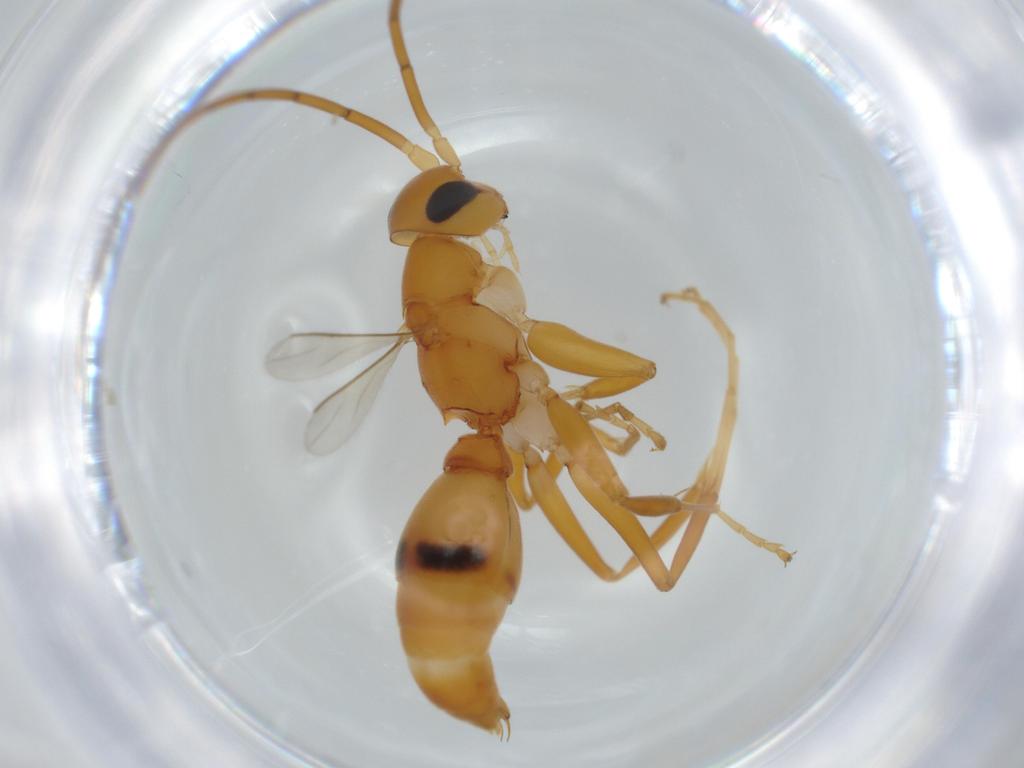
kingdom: Animalia
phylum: Arthropoda
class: Insecta
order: Hymenoptera
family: Rhopalosomatidae
